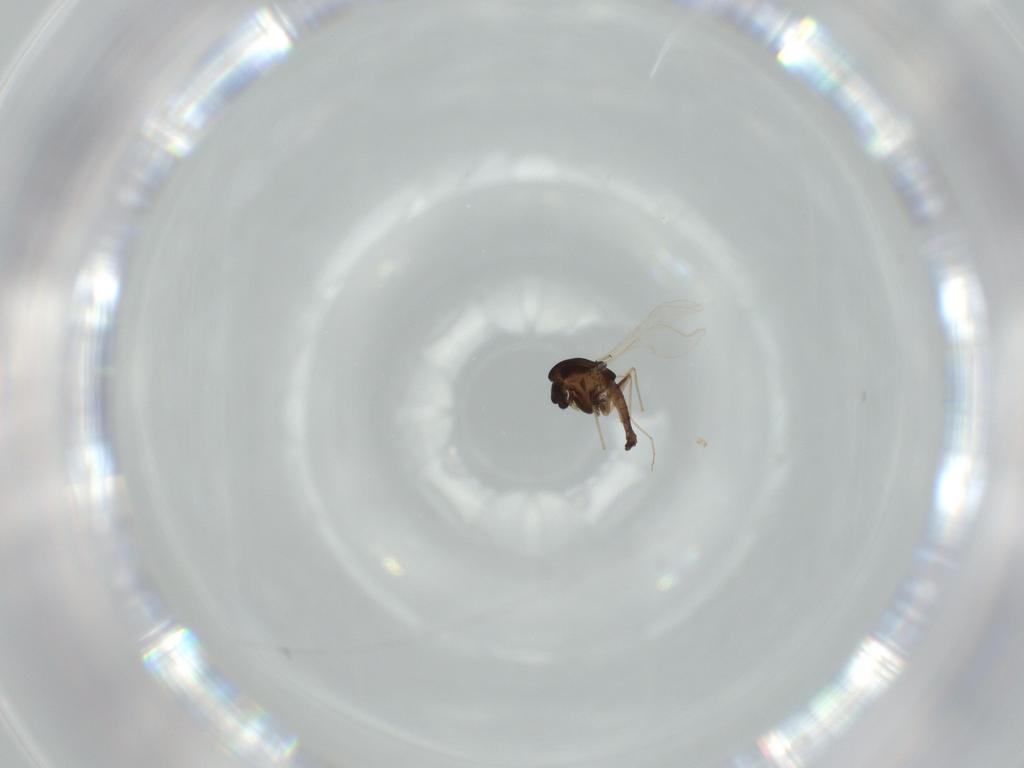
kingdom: Animalia
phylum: Arthropoda
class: Insecta
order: Diptera
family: Chironomidae
